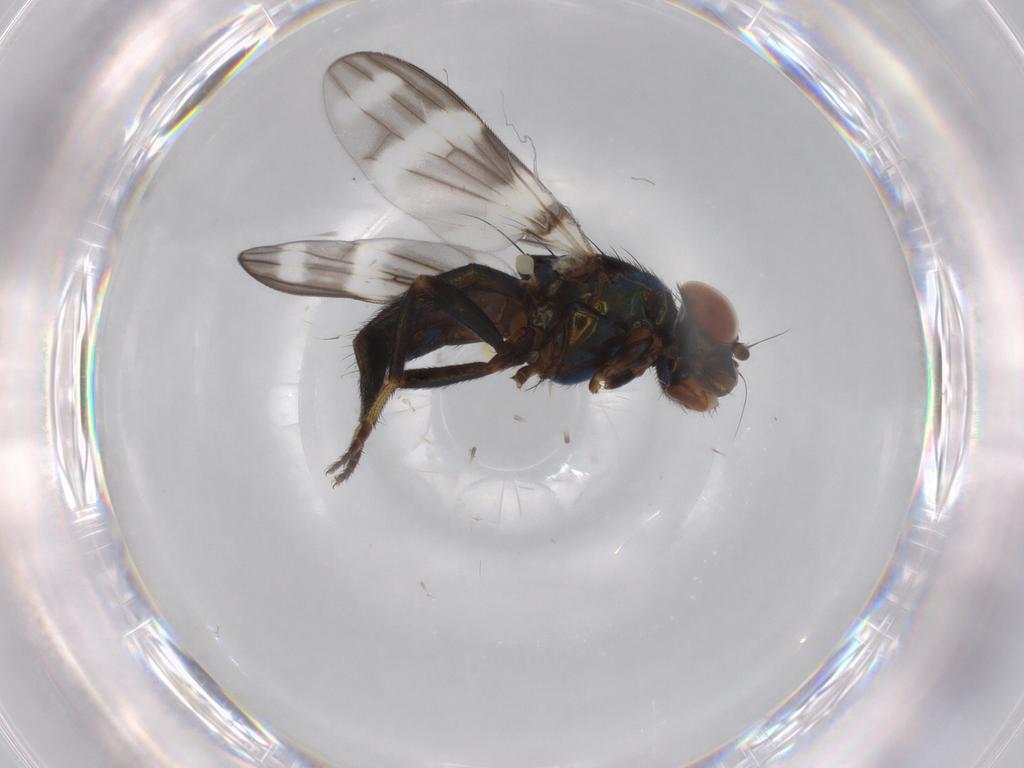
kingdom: Animalia
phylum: Arthropoda
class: Insecta
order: Diptera
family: Ulidiidae
